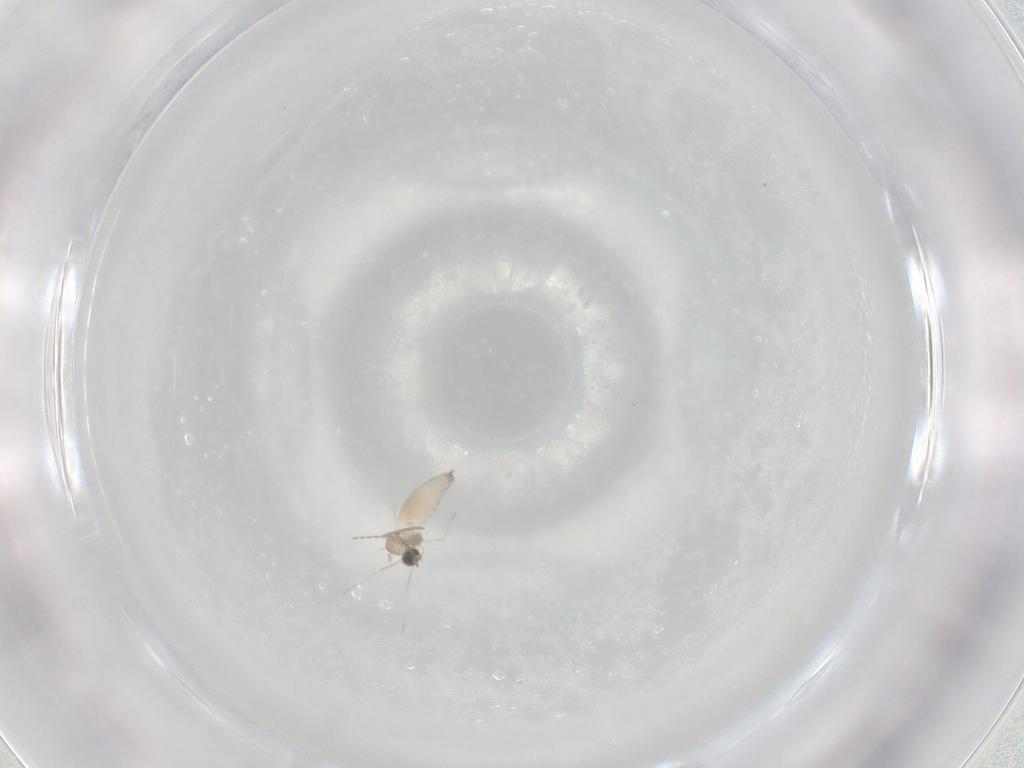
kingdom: Animalia
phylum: Arthropoda
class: Insecta
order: Diptera
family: Cecidomyiidae
